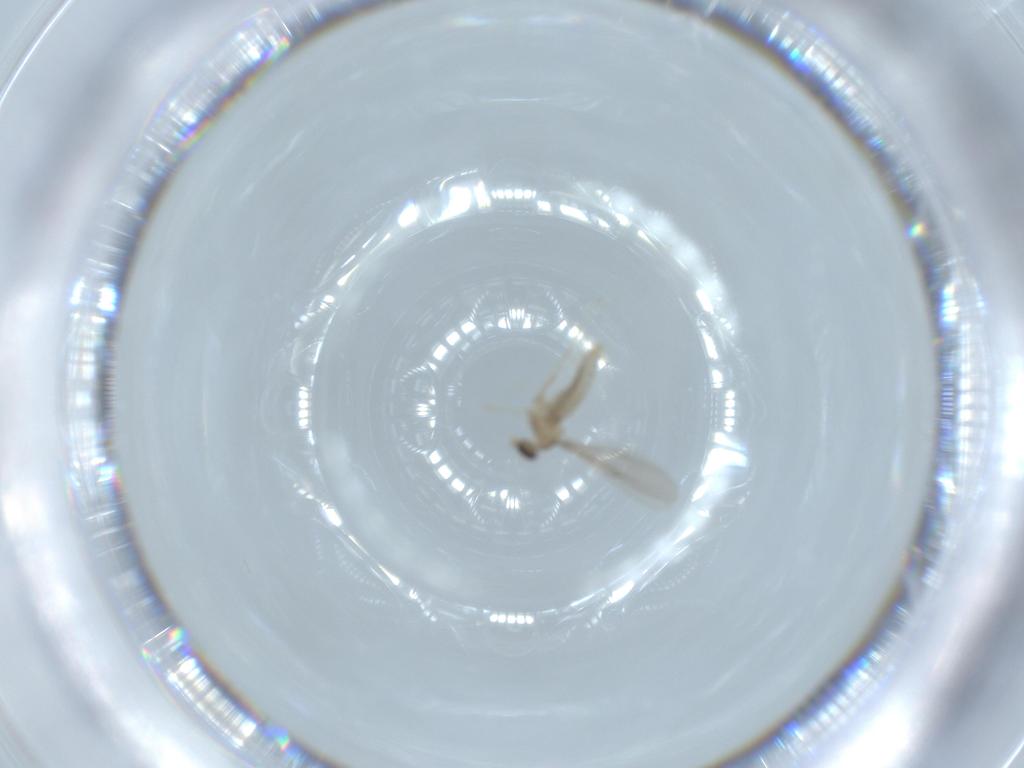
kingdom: Animalia
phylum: Arthropoda
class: Insecta
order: Diptera
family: Cecidomyiidae
